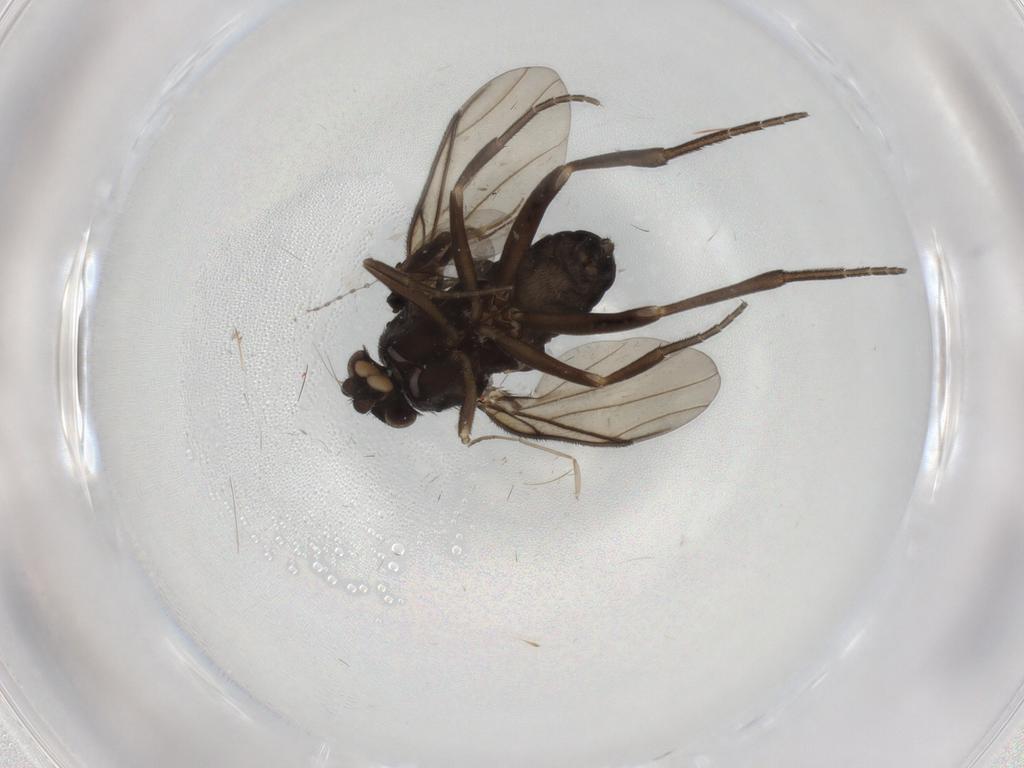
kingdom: Animalia
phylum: Arthropoda
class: Insecta
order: Diptera
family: Phoridae
